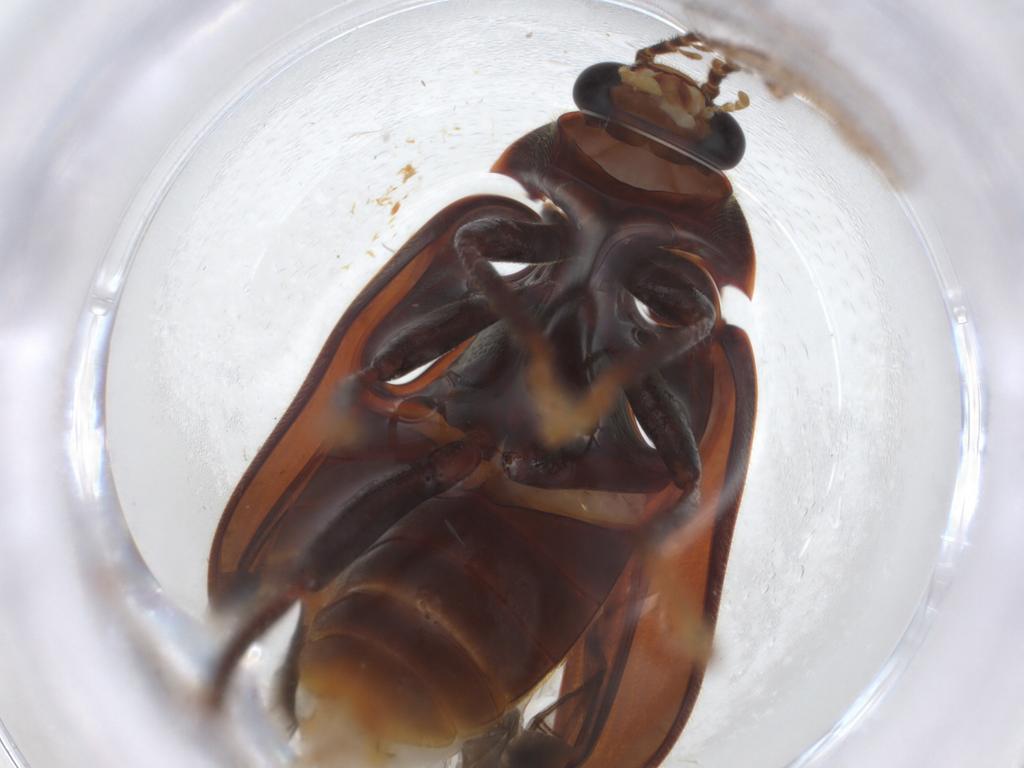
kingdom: Animalia
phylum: Arthropoda
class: Insecta
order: Coleoptera
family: Ptilodactylidae
